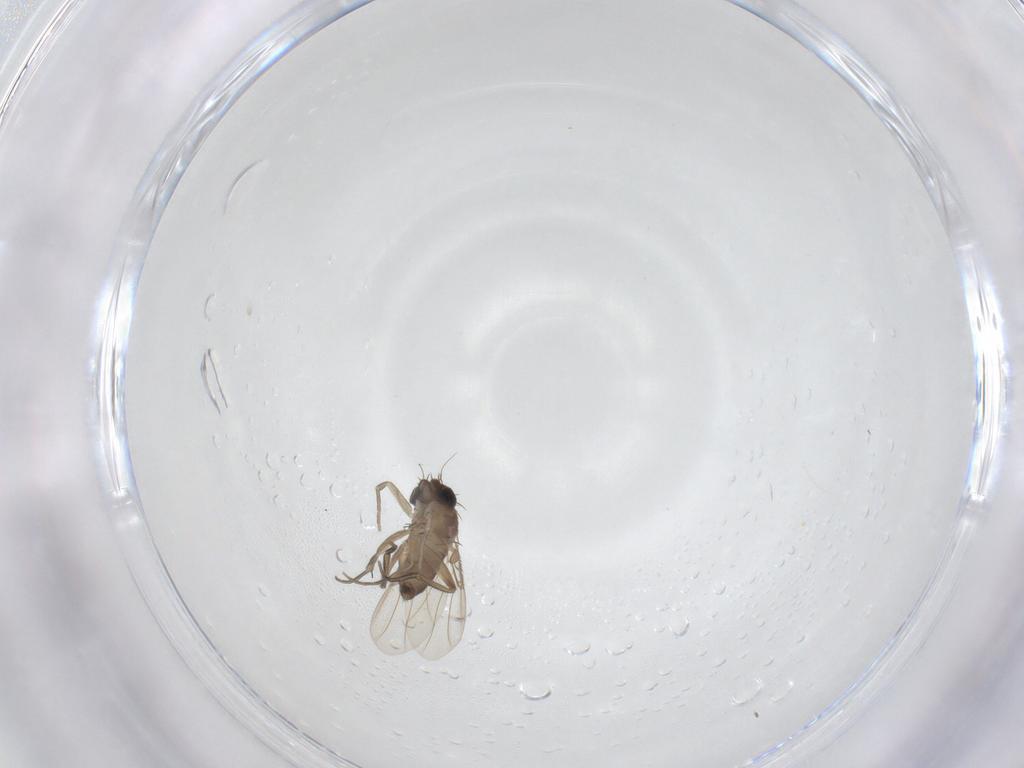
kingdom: Animalia
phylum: Arthropoda
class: Insecta
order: Diptera
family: Phoridae
